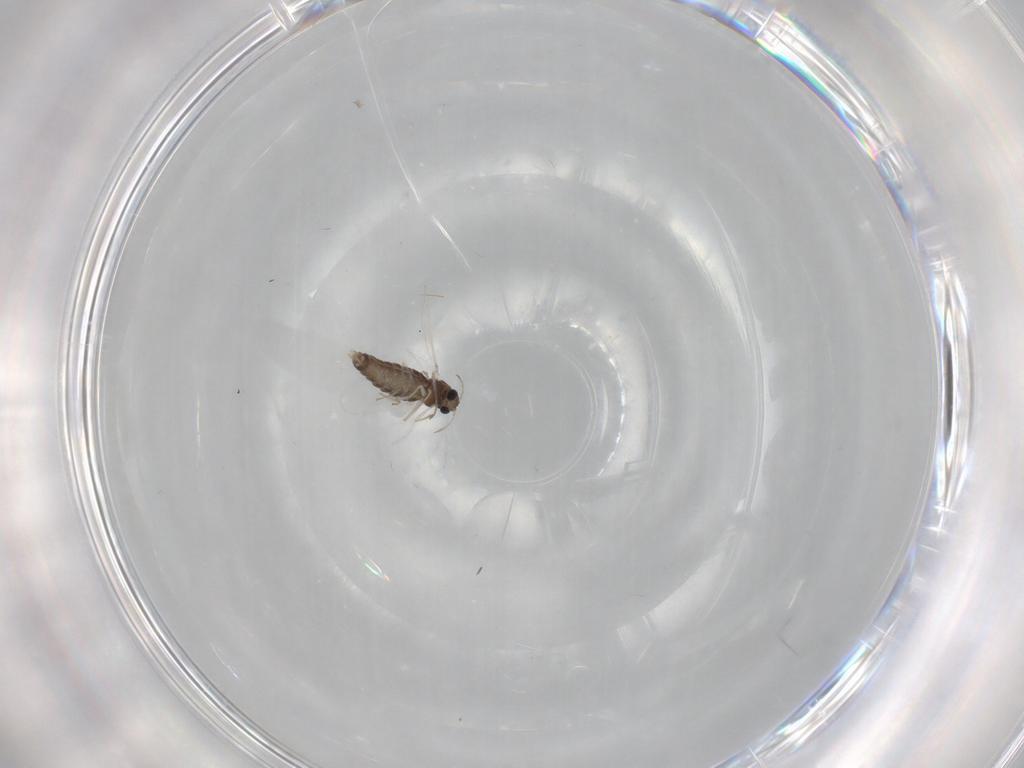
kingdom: Animalia
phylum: Arthropoda
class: Insecta
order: Diptera
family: Chironomidae
